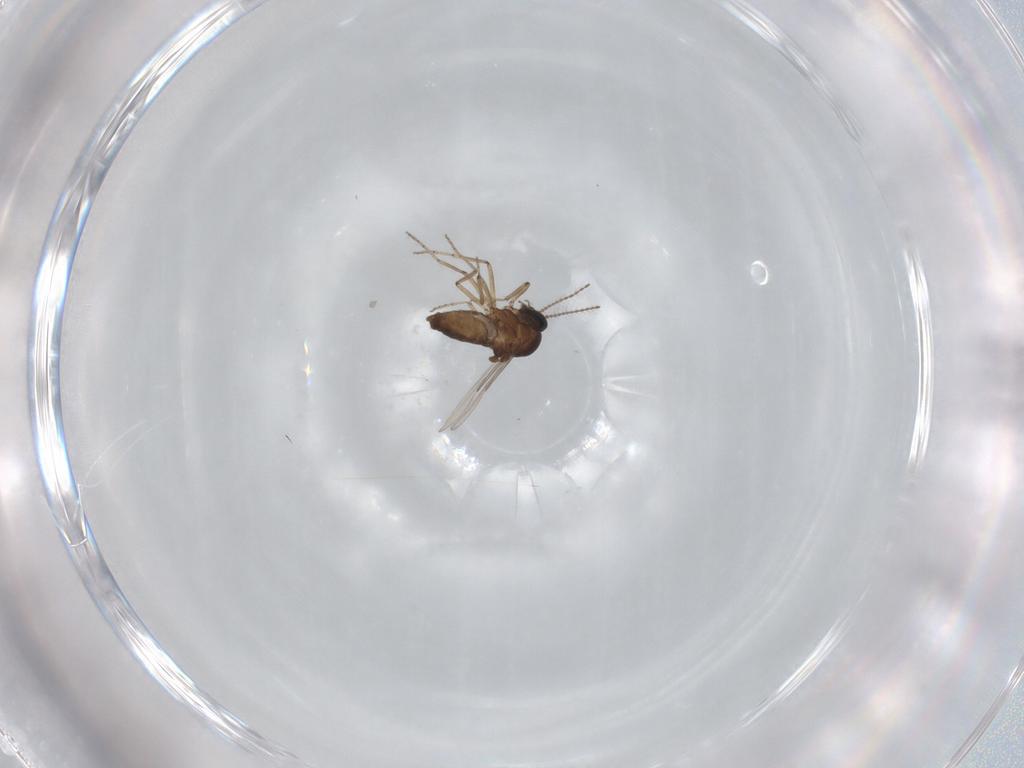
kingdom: Animalia
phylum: Arthropoda
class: Insecta
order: Diptera
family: Ceratopogonidae
